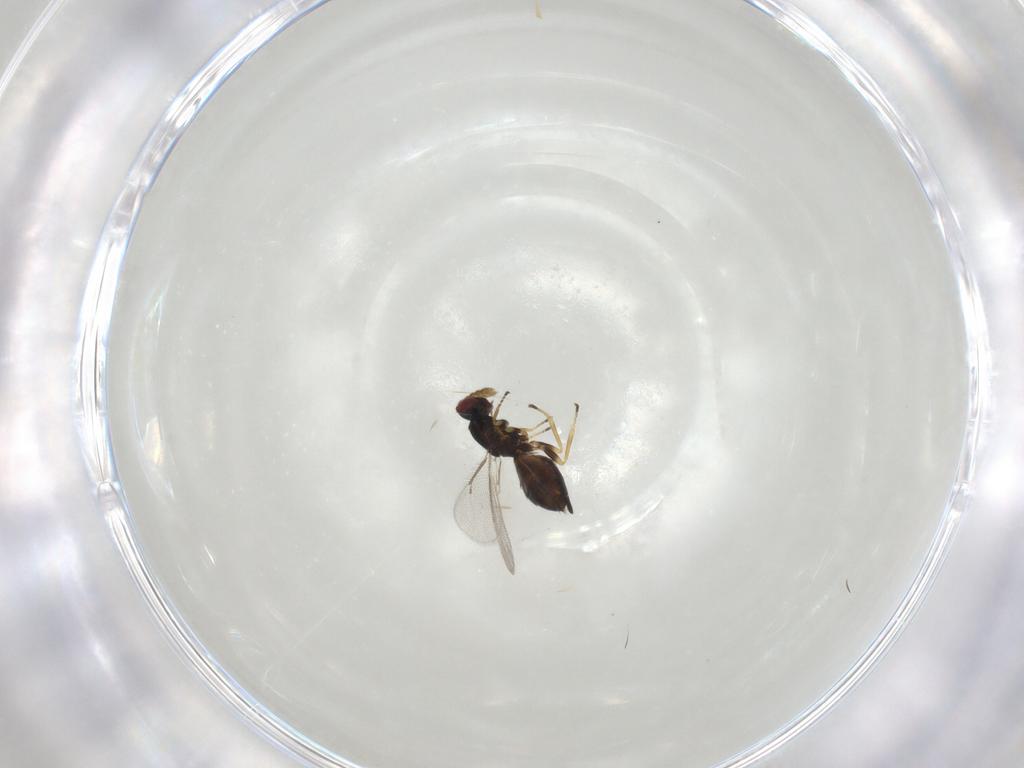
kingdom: Animalia
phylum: Arthropoda
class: Insecta
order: Hymenoptera
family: Eulophidae
